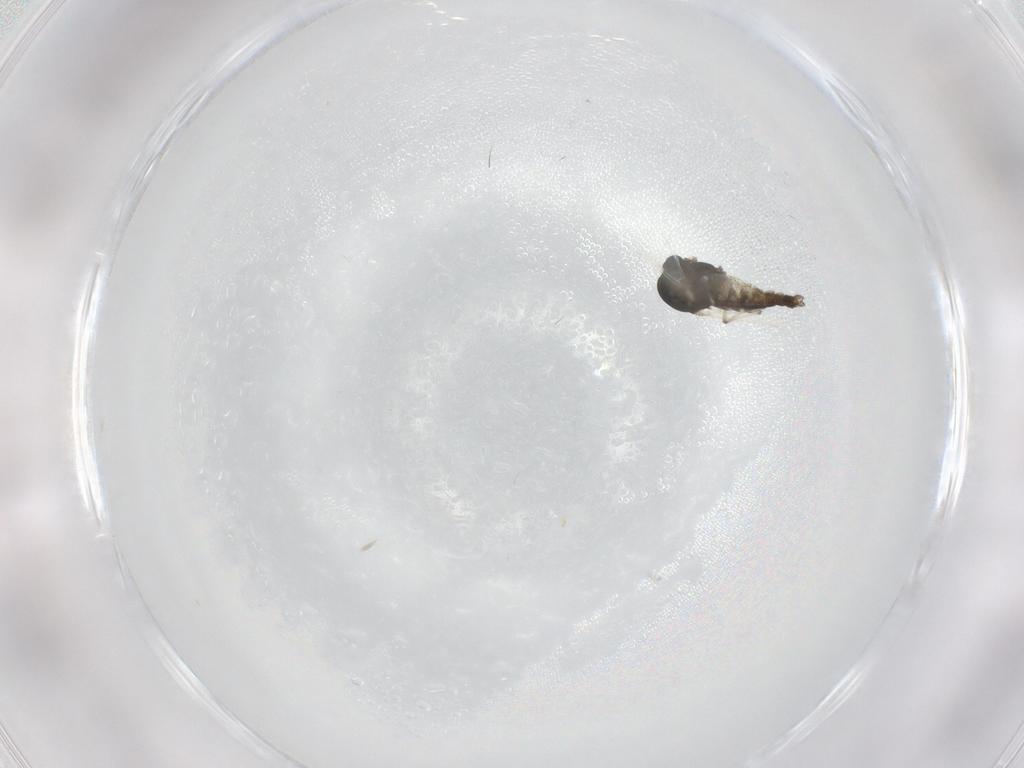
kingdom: Animalia
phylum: Arthropoda
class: Insecta
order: Diptera
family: Chironomidae
